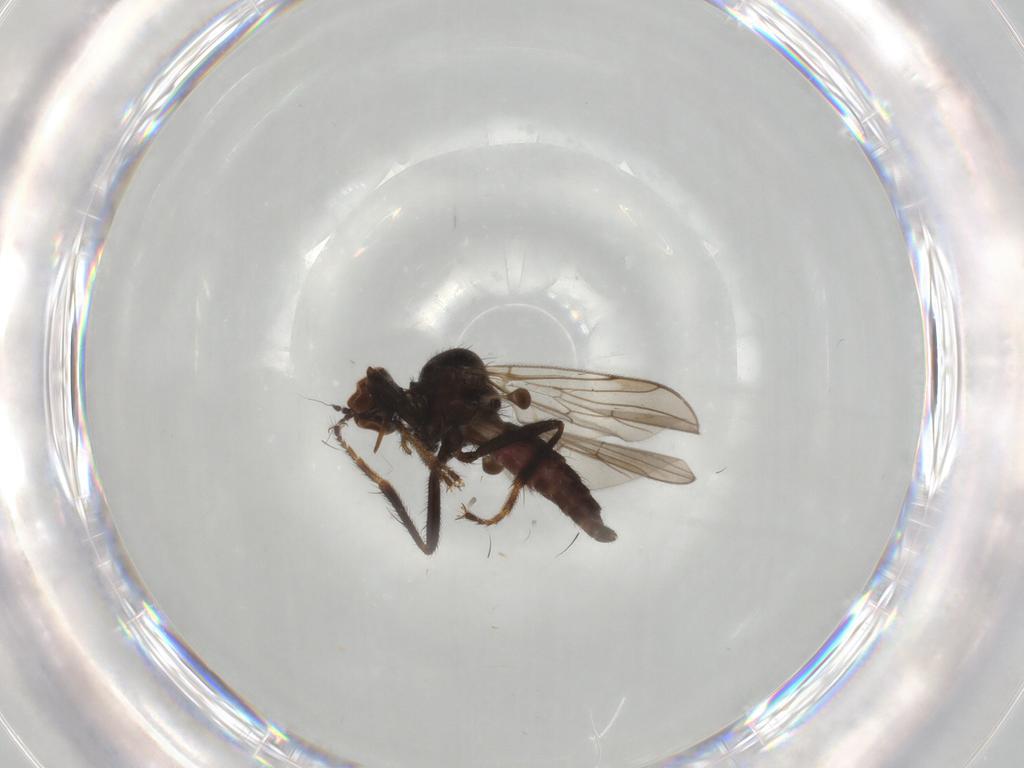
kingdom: Animalia
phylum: Arthropoda
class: Insecta
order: Diptera
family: Hybotidae
